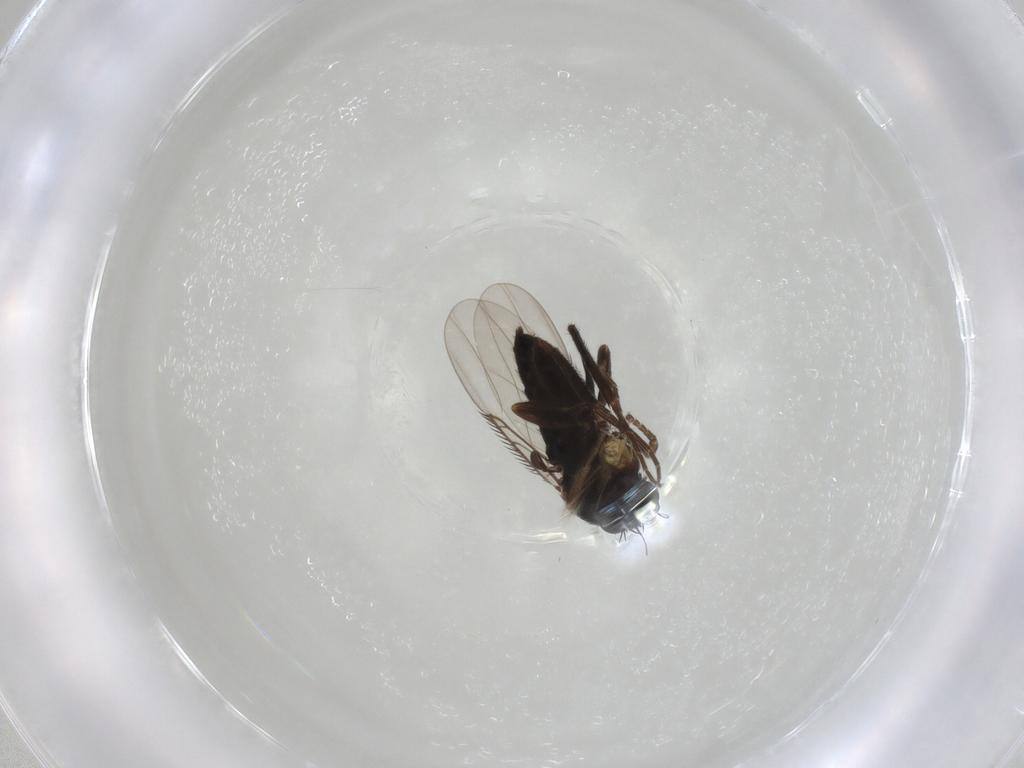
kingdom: Animalia
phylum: Arthropoda
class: Insecta
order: Diptera
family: Phoridae
